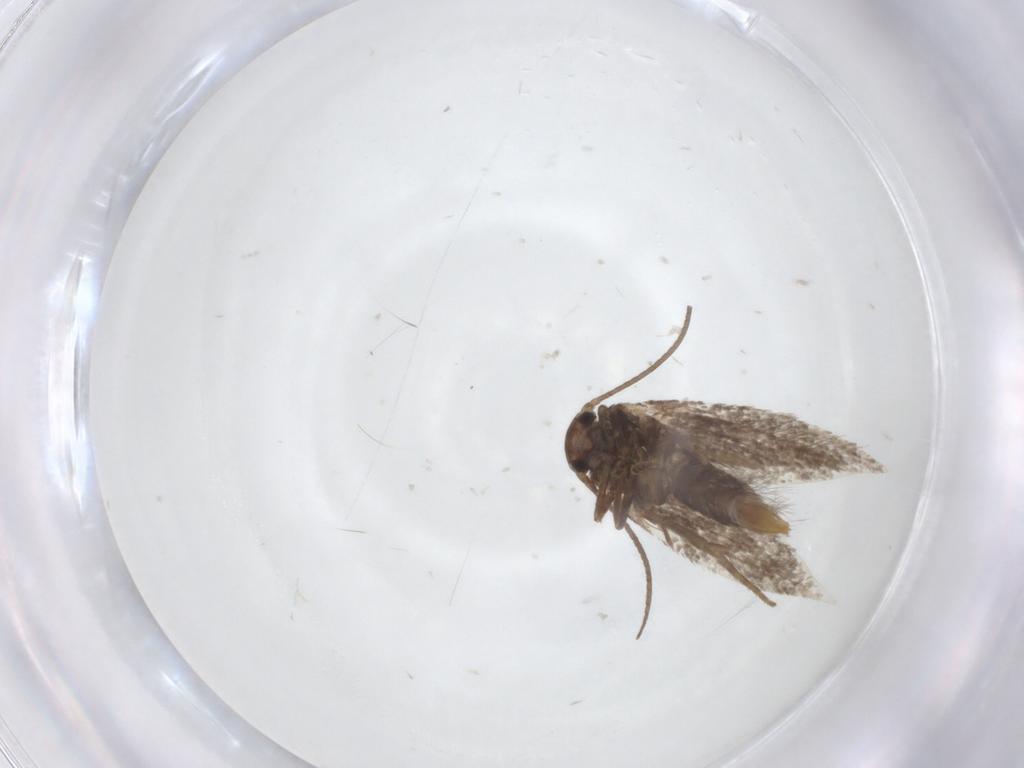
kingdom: Animalia
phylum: Arthropoda
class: Insecta
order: Lepidoptera
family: Elachistidae
